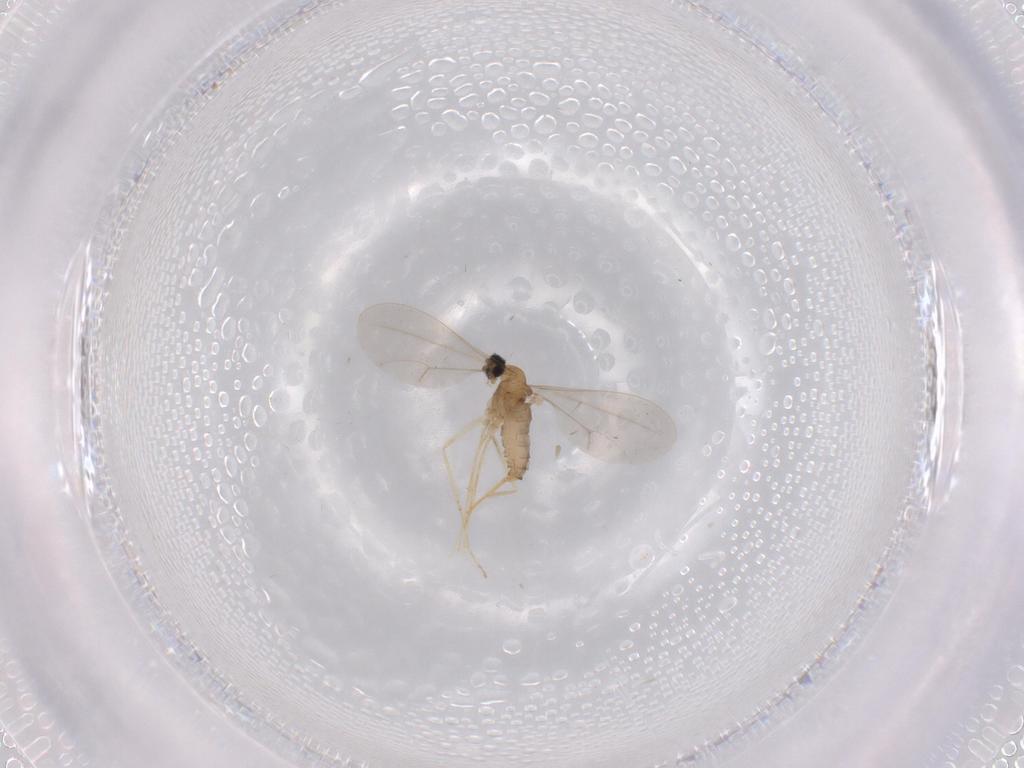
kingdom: Animalia
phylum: Arthropoda
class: Insecta
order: Diptera
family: Cecidomyiidae
